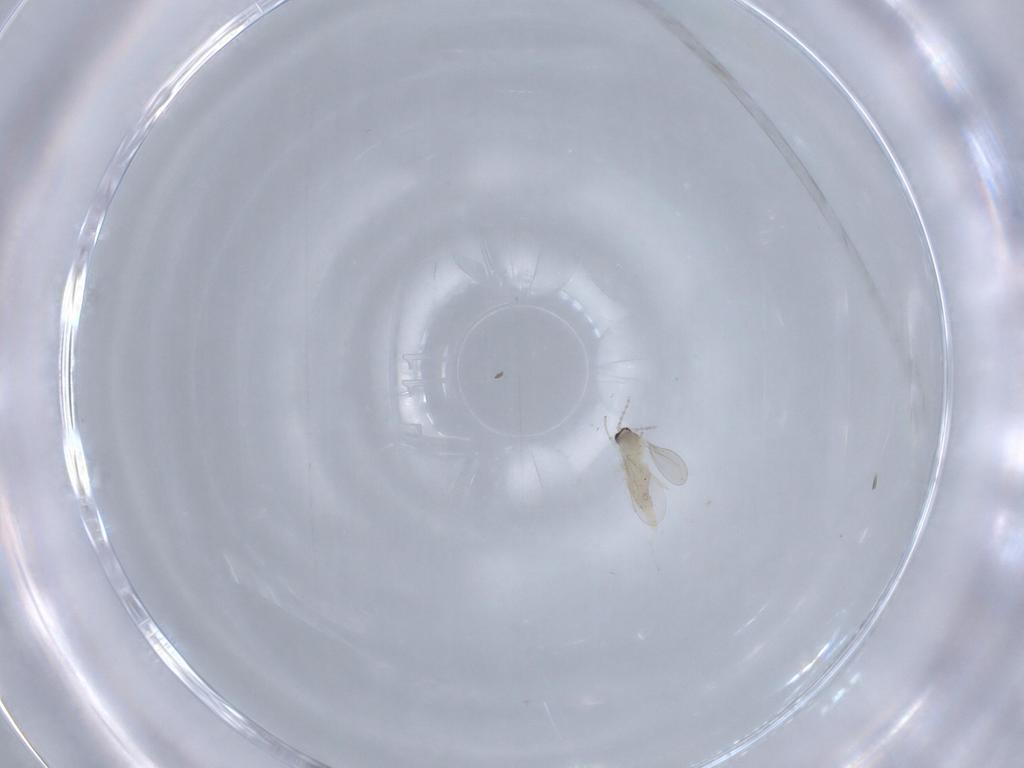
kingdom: Animalia
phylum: Arthropoda
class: Insecta
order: Diptera
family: Cecidomyiidae
